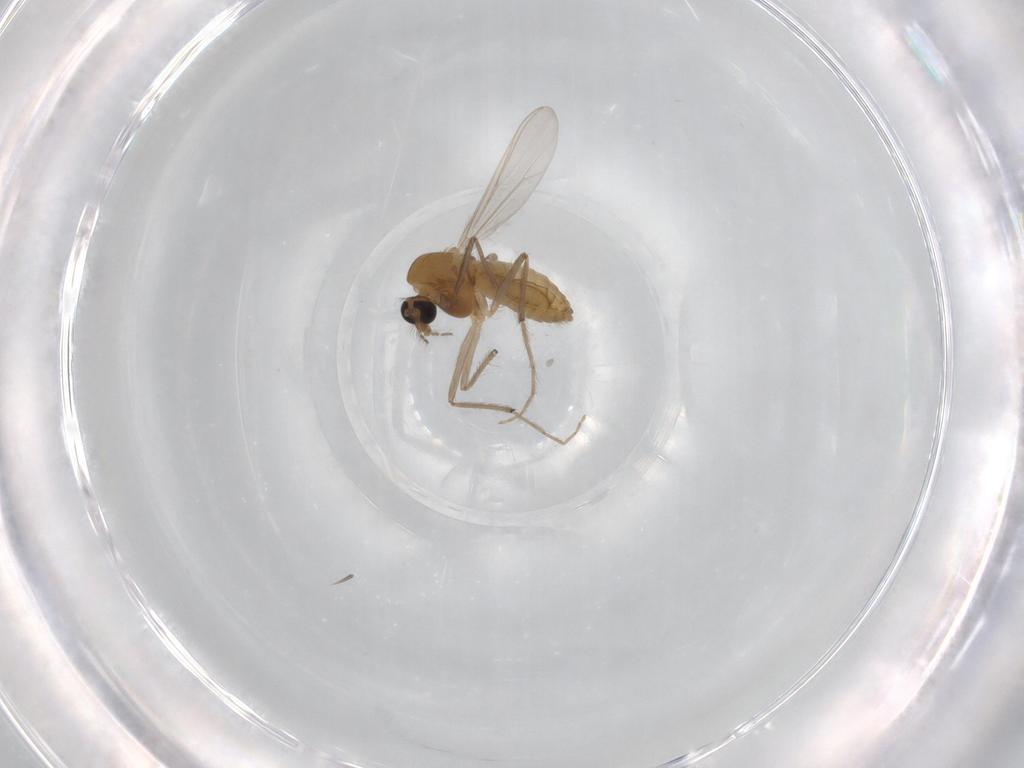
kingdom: Animalia
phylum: Arthropoda
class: Insecta
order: Diptera
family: Chironomidae
